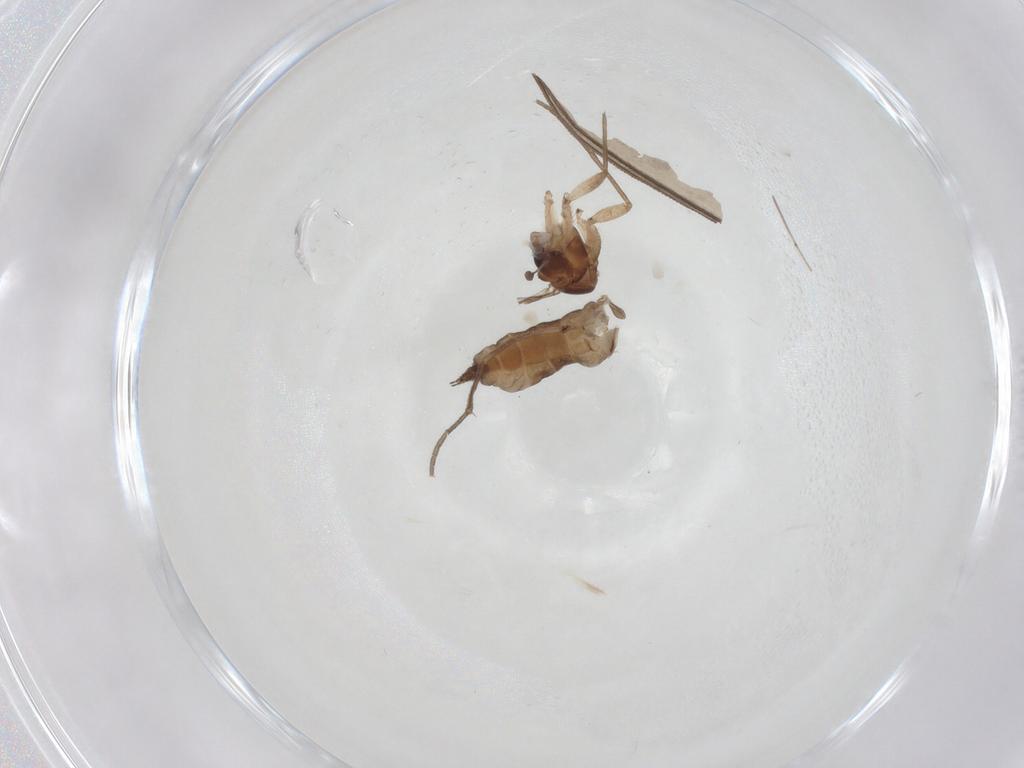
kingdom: Animalia
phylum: Arthropoda
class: Insecta
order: Diptera
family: Sciaridae
